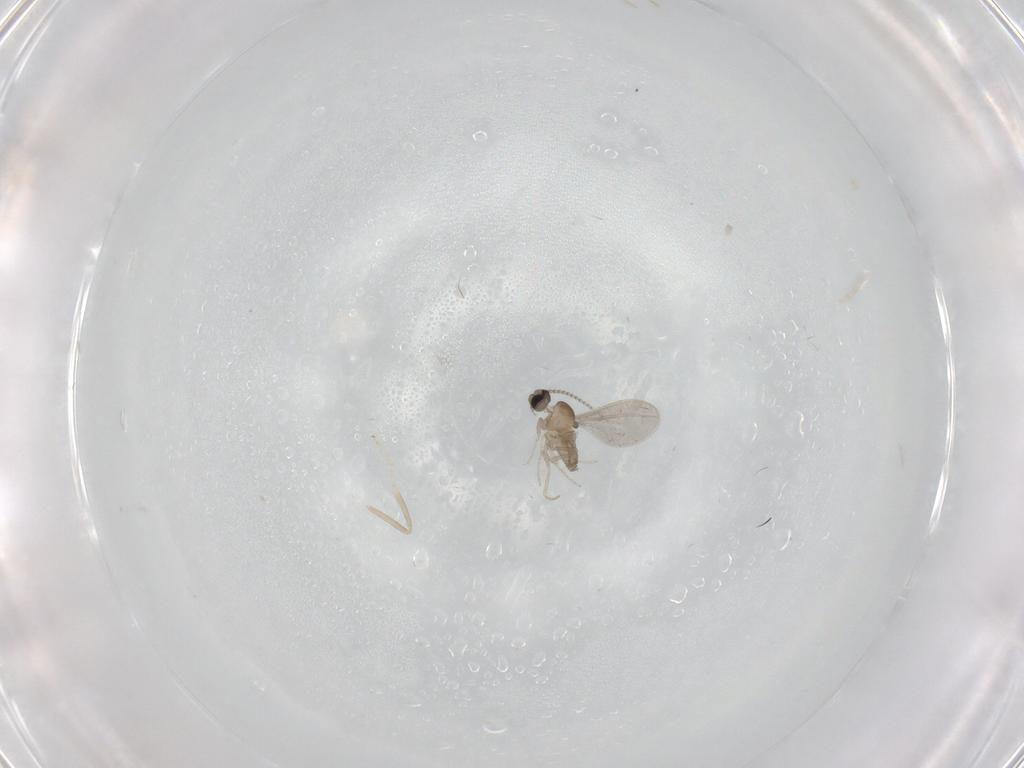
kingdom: Animalia
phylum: Arthropoda
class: Insecta
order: Diptera
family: Cecidomyiidae
